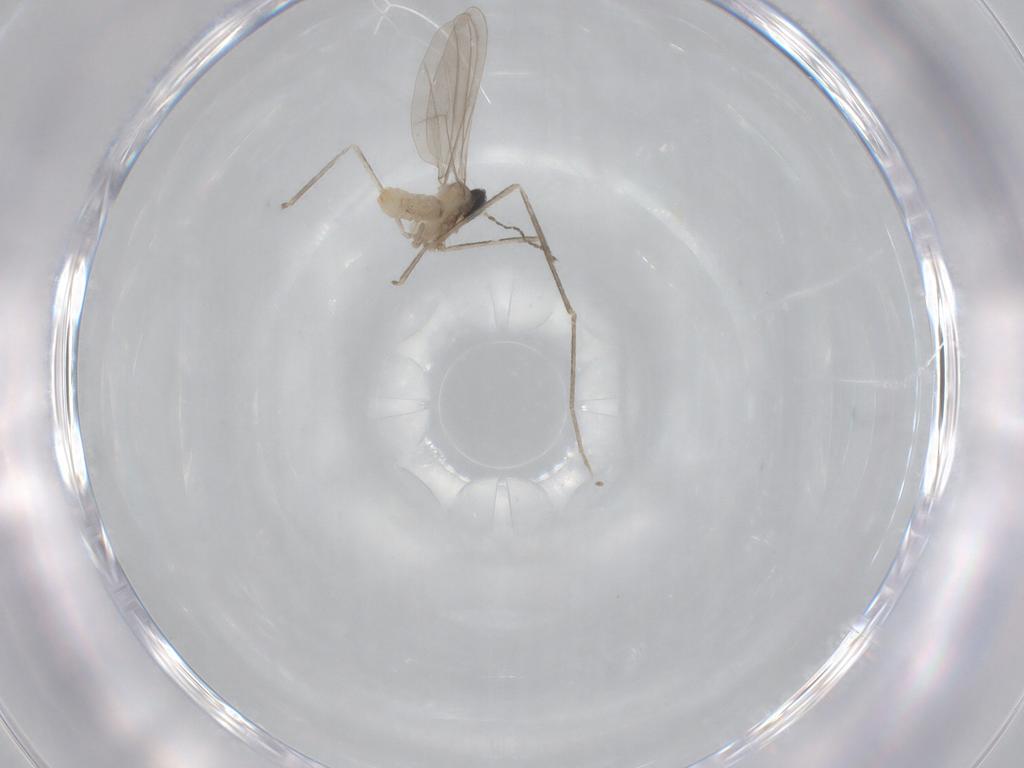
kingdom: Animalia
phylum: Arthropoda
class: Insecta
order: Diptera
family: Cecidomyiidae
